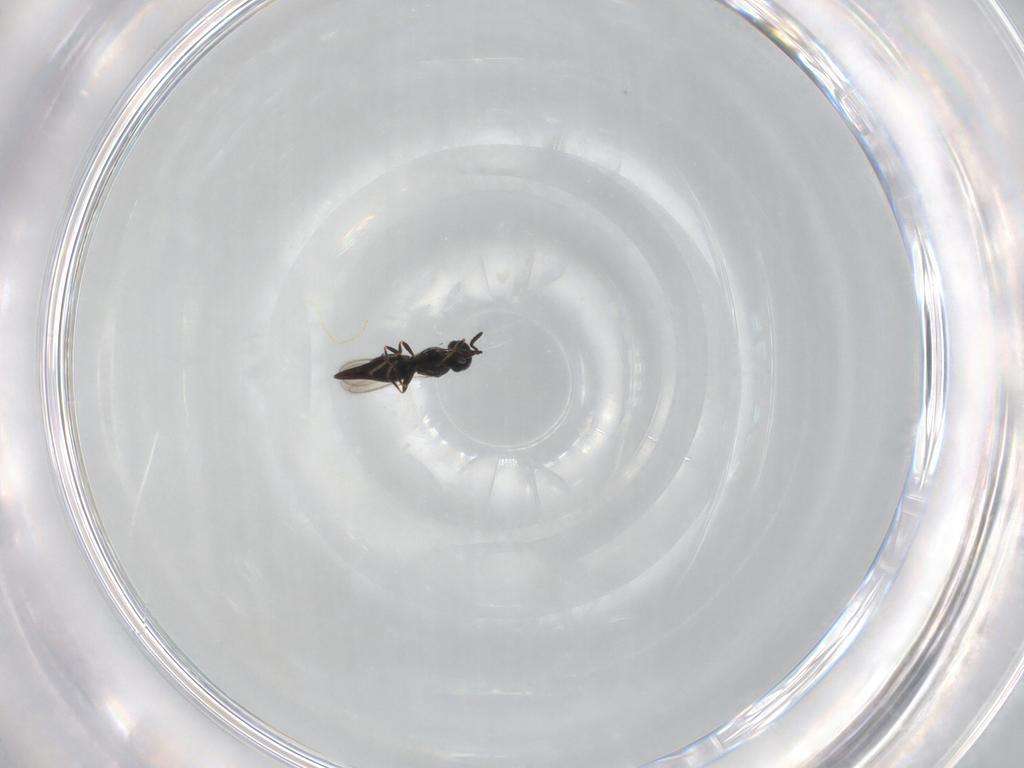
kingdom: Animalia
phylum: Arthropoda
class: Insecta
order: Hymenoptera
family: Scelionidae
